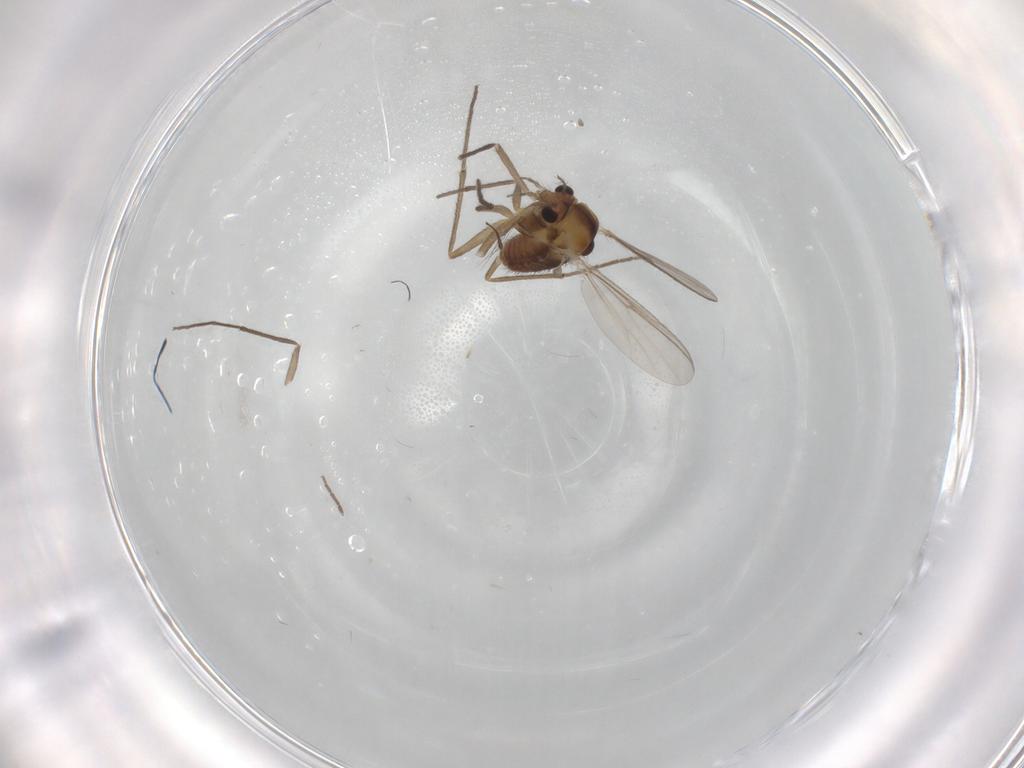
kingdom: Animalia
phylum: Arthropoda
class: Insecta
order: Diptera
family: Chironomidae
